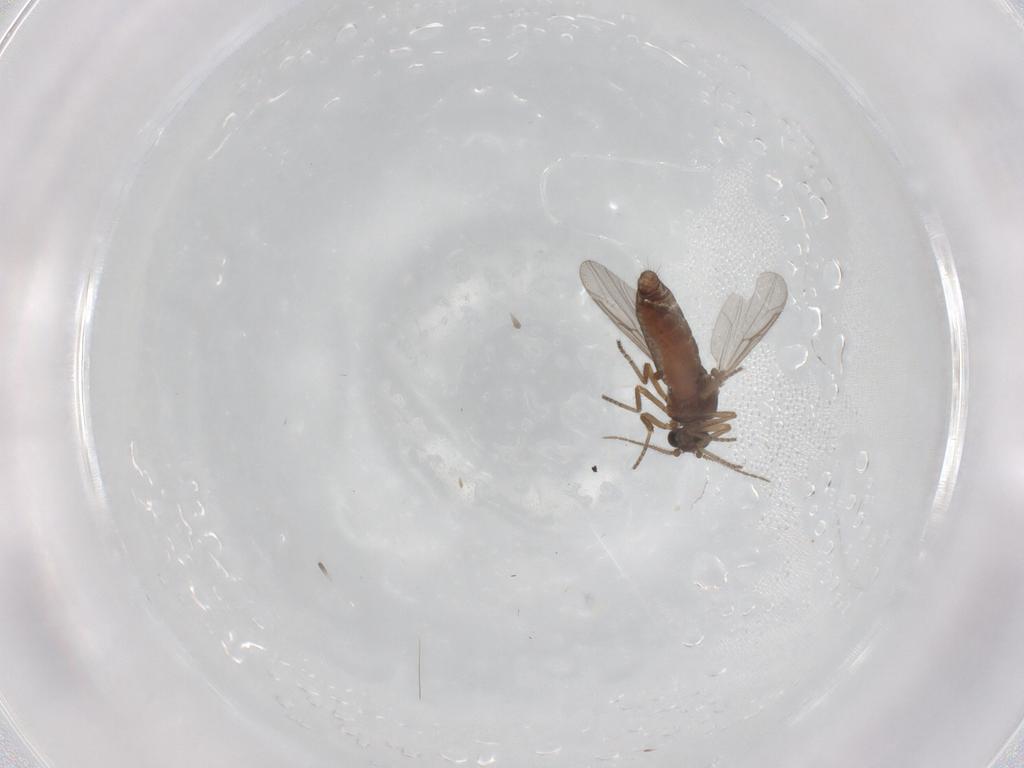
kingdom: Animalia
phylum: Arthropoda
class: Insecta
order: Diptera
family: Ceratopogonidae
